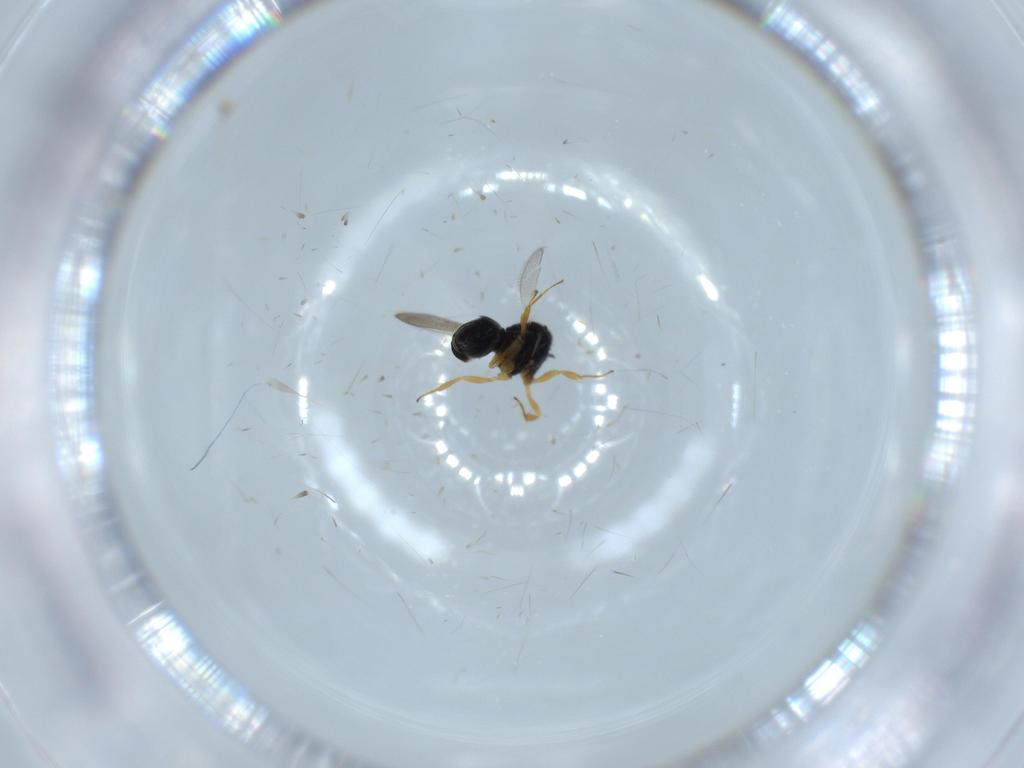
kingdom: Animalia
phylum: Arthropoda
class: Insecta
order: Hymenoptera
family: Scelionidae
